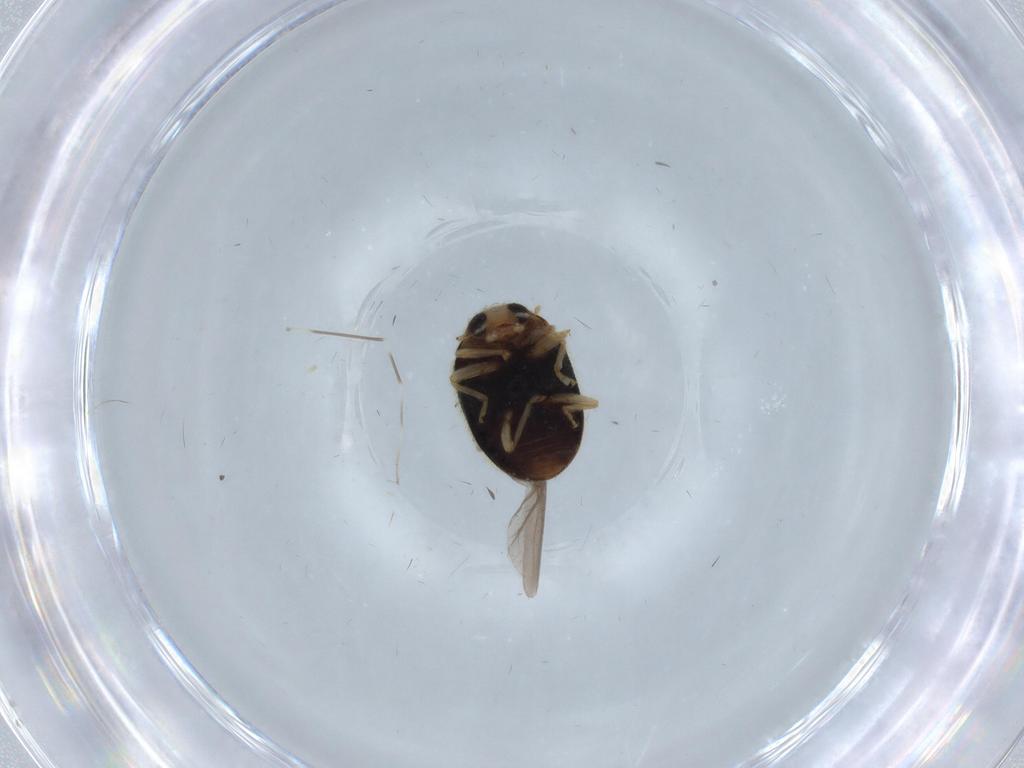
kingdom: Animalia
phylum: Arthropoda
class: Insecta
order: Coleoptera
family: Coccinellidae
